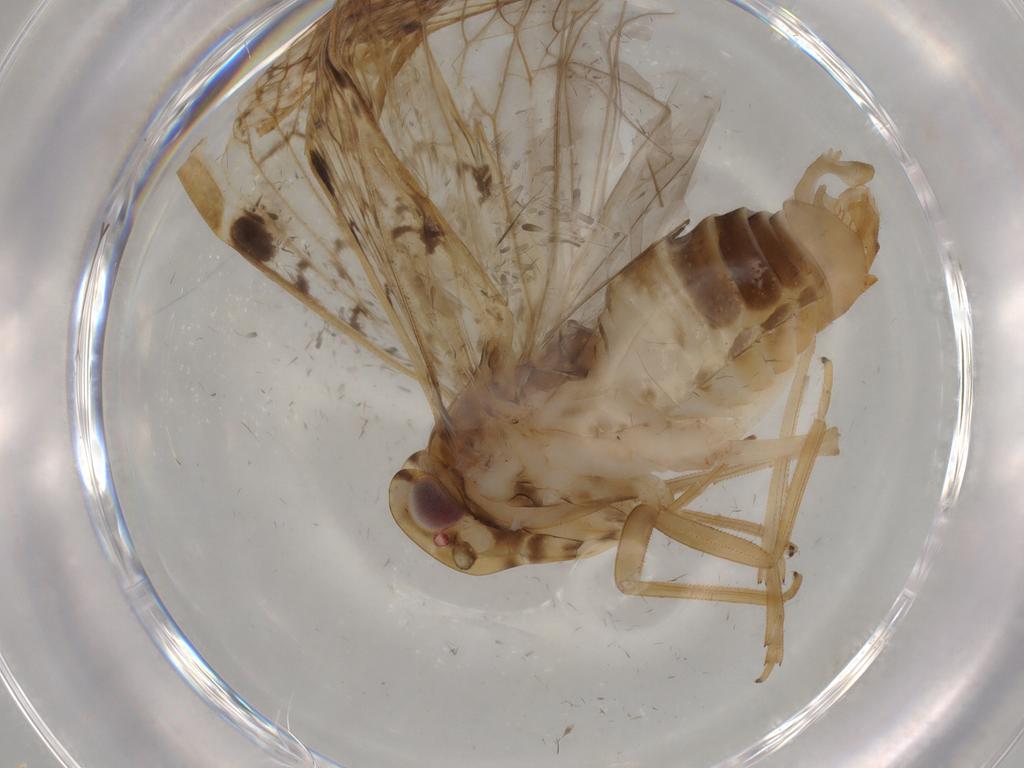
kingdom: Animalia
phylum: Arthropoda
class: Insecta
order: Hemiptera
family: Cixiidae
